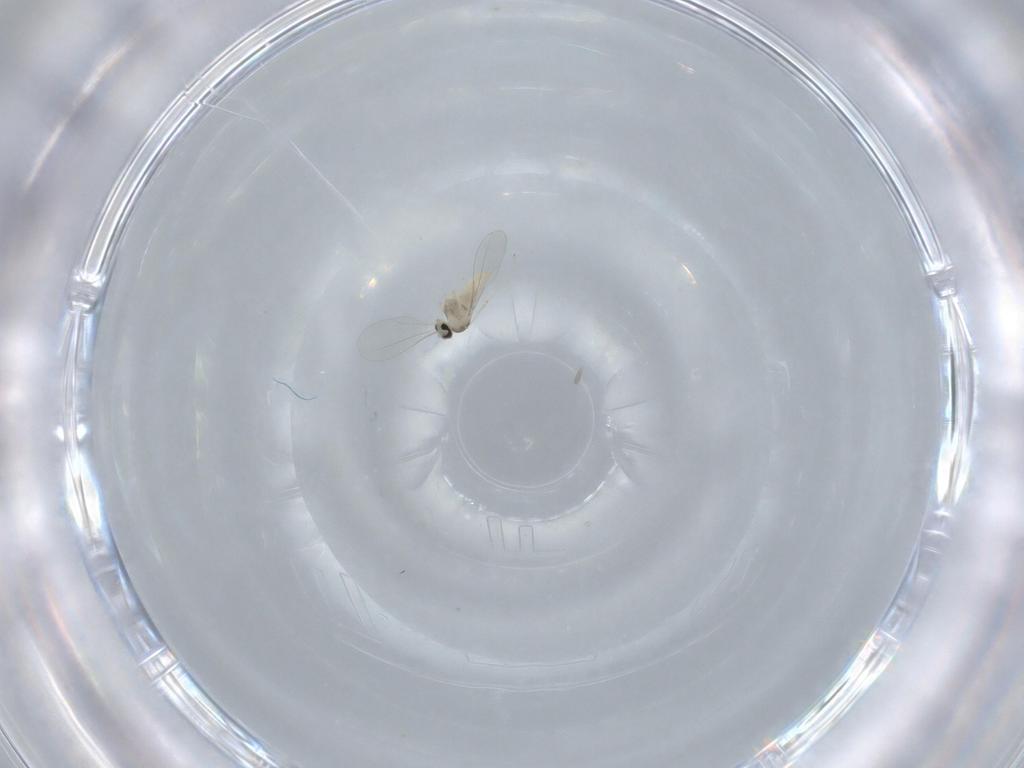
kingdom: Animalia
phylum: Arthropoda
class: Insecta
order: Diptera
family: Cecidomyiidae
